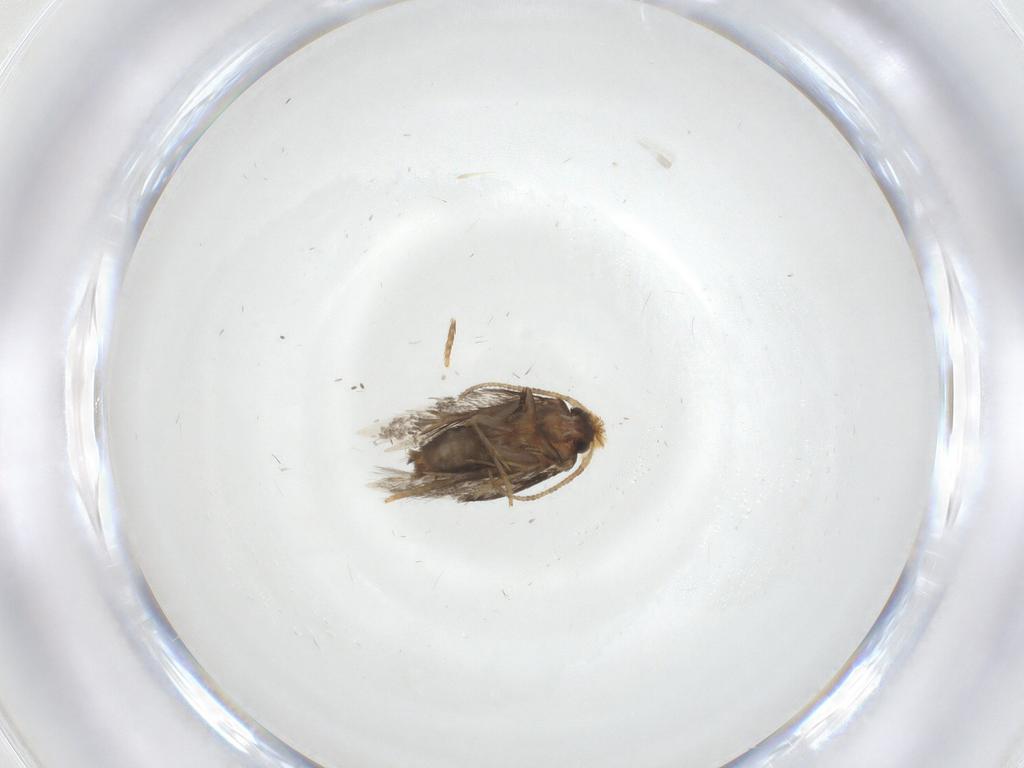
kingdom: Animalia
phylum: Arthropoda
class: Insecta
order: Lepidoptera
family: Nepticulidae
